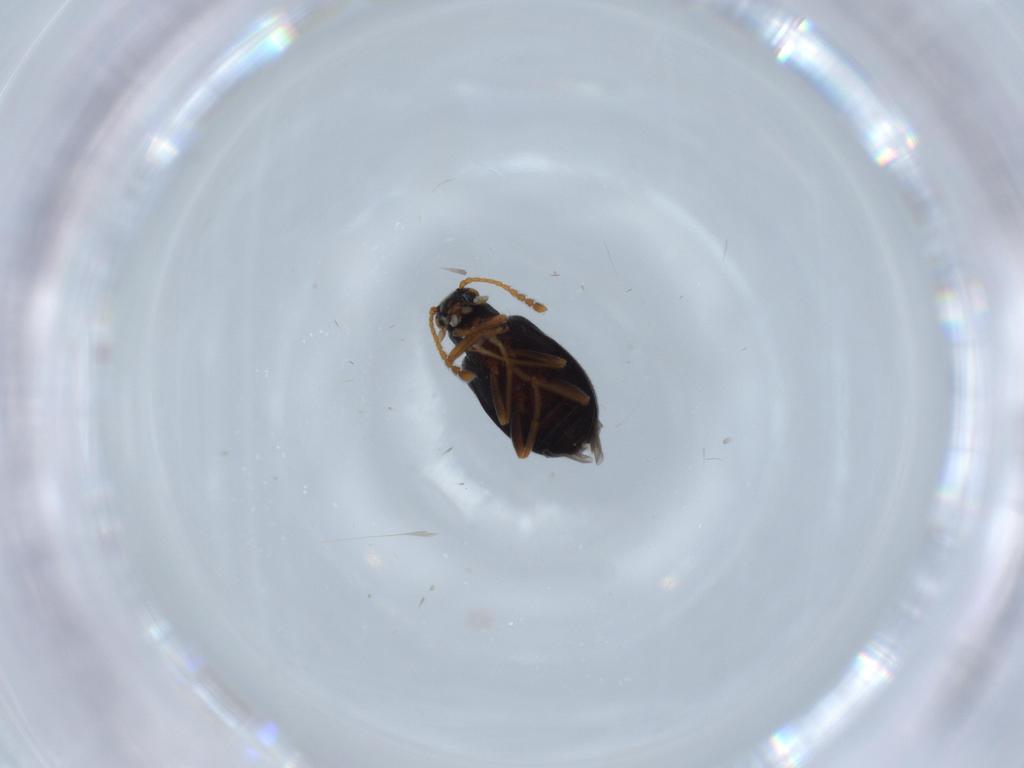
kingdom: Animalia
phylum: Arthropoda
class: Insecta
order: Coleoptera
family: Aderidae
